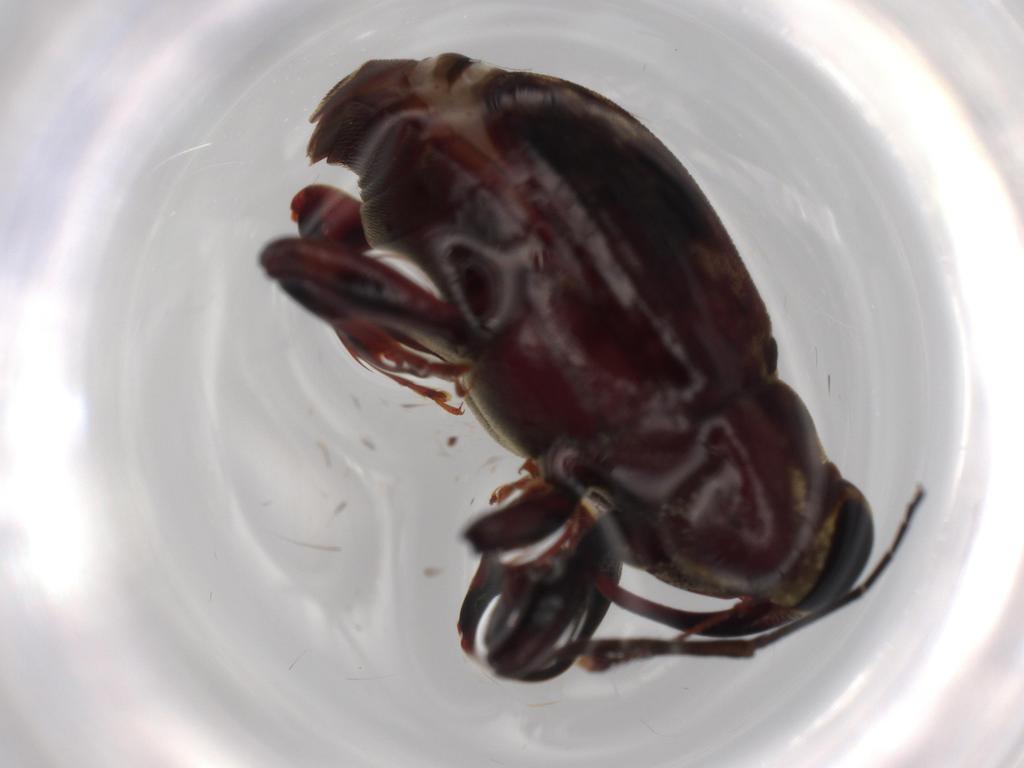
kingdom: Animalia
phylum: Arthropoda
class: Insecta
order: Coleoptera
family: Curculionidae
